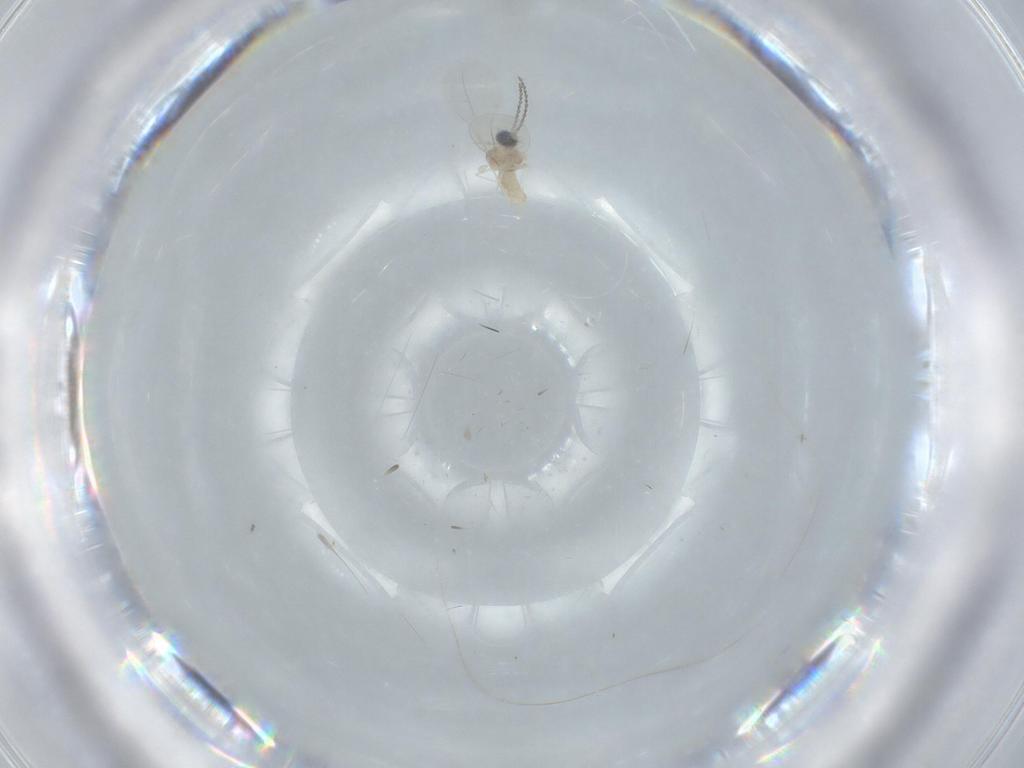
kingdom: Animalia
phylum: Arthropoda
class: Insecta
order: Diptera
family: Cecidomyiidae
